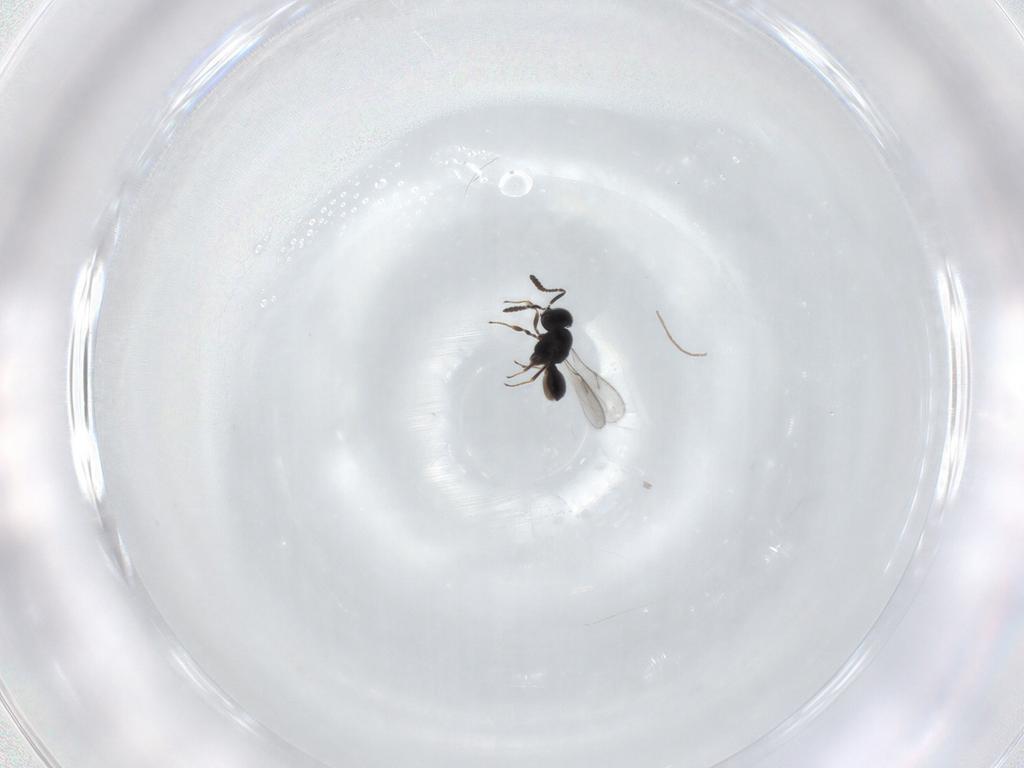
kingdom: Animalia
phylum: Arthropoda
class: Insecta
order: Hymenoptera
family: Scelionidae
